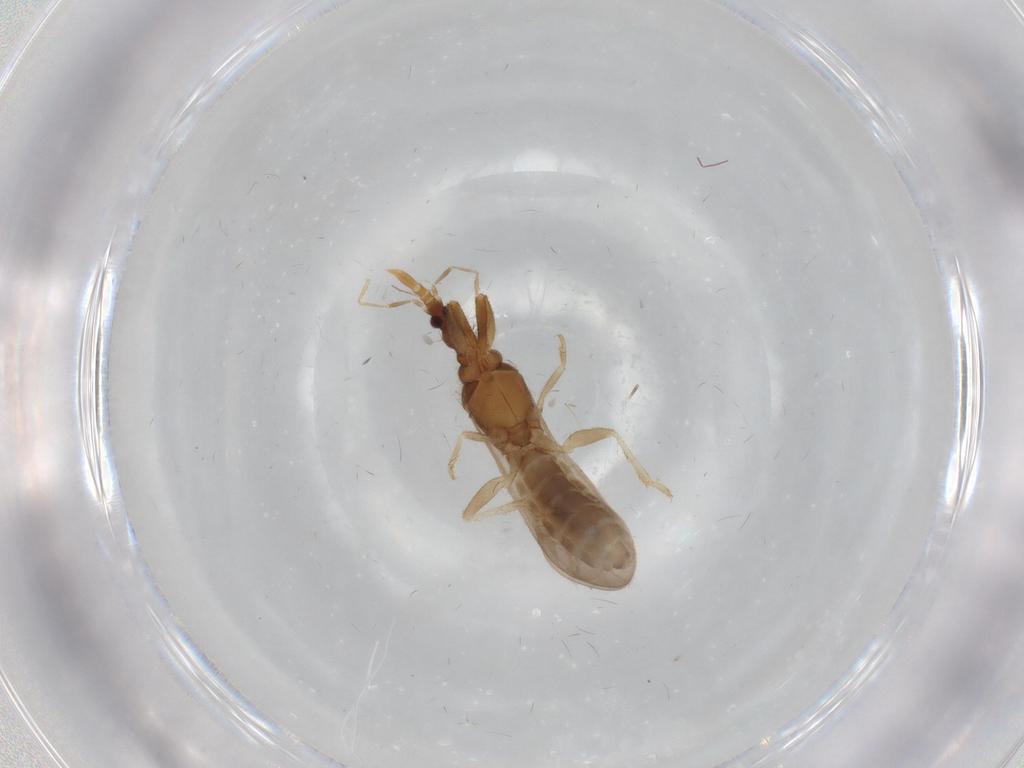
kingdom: Animalia
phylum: Arthropoda
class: Insecta
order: Hemiptera
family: Enicocephalidae
